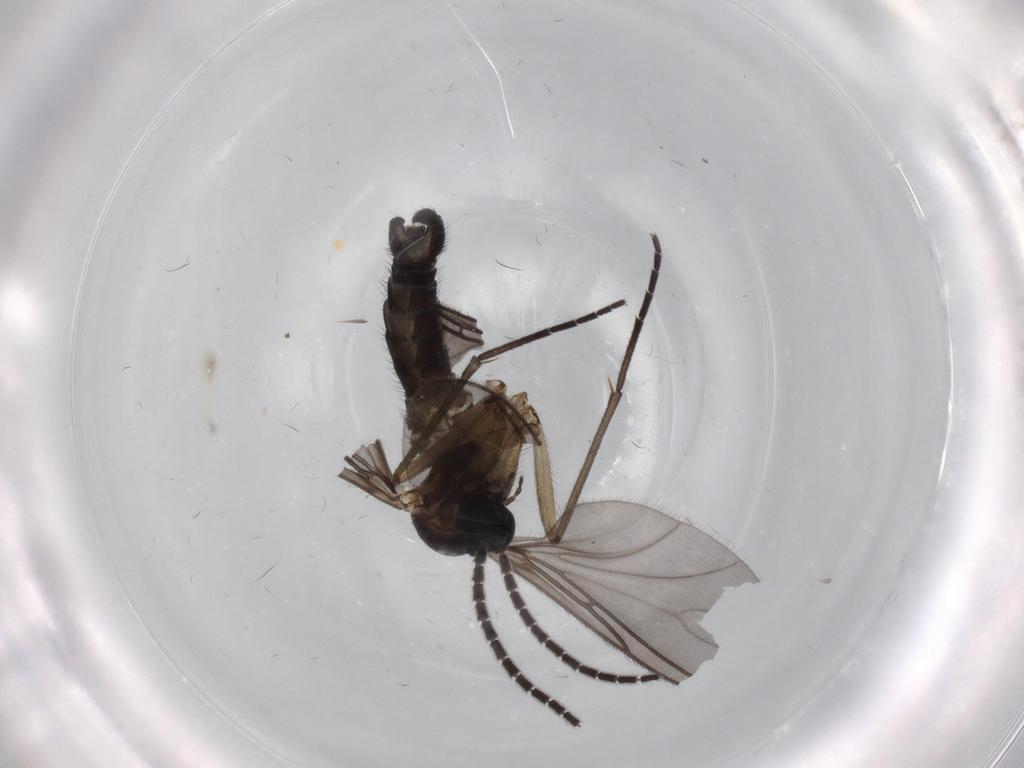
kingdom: Animalia
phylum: Arthropoda
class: Insecta
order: Diptera
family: Sciaridae
